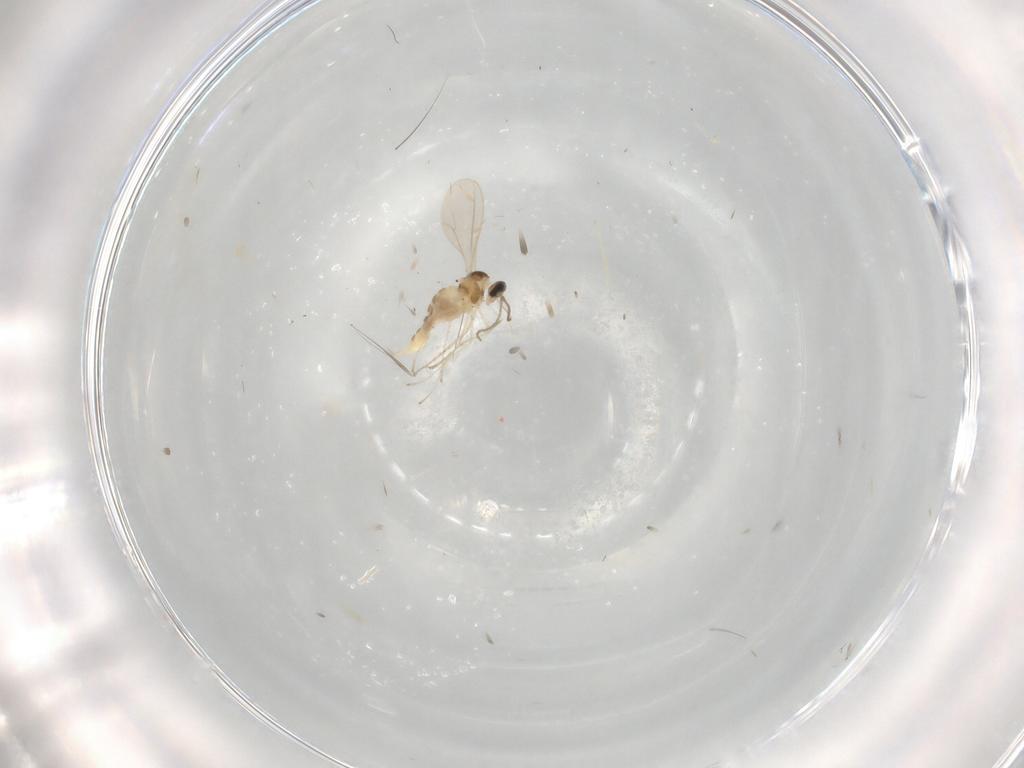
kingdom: Animalia
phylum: Arthropoda
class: Insecta
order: Diptera
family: Cecidomyiidae
